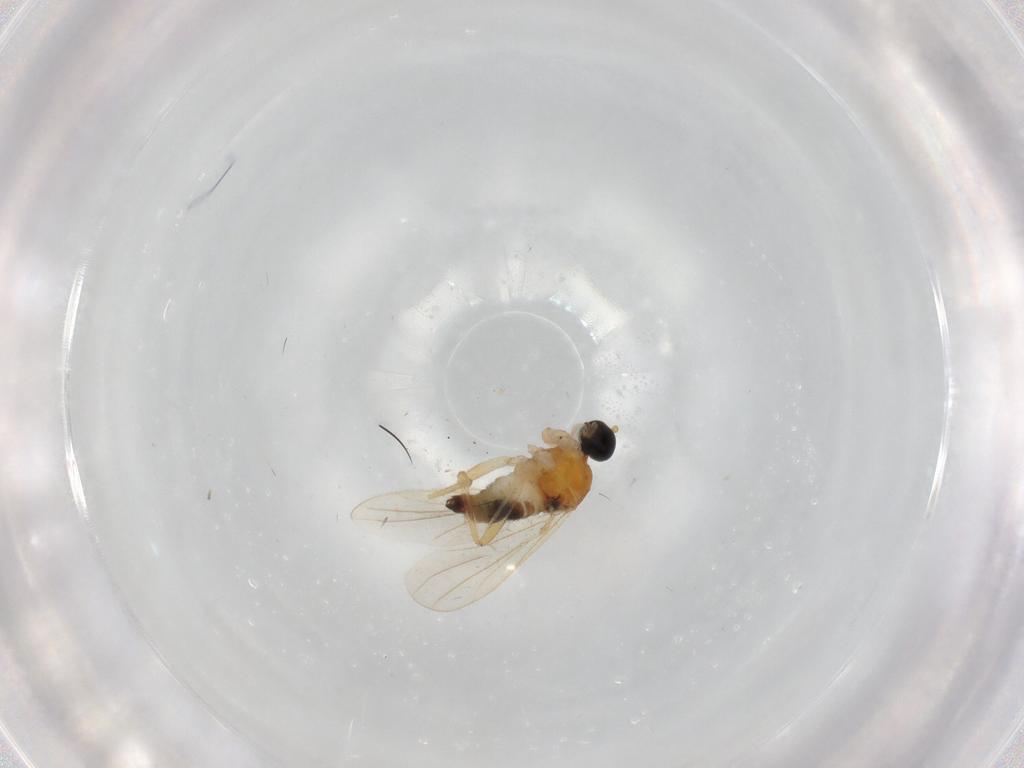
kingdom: Animalia
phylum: Arthropoda
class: Insecta
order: Diptera
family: Hybotidae
